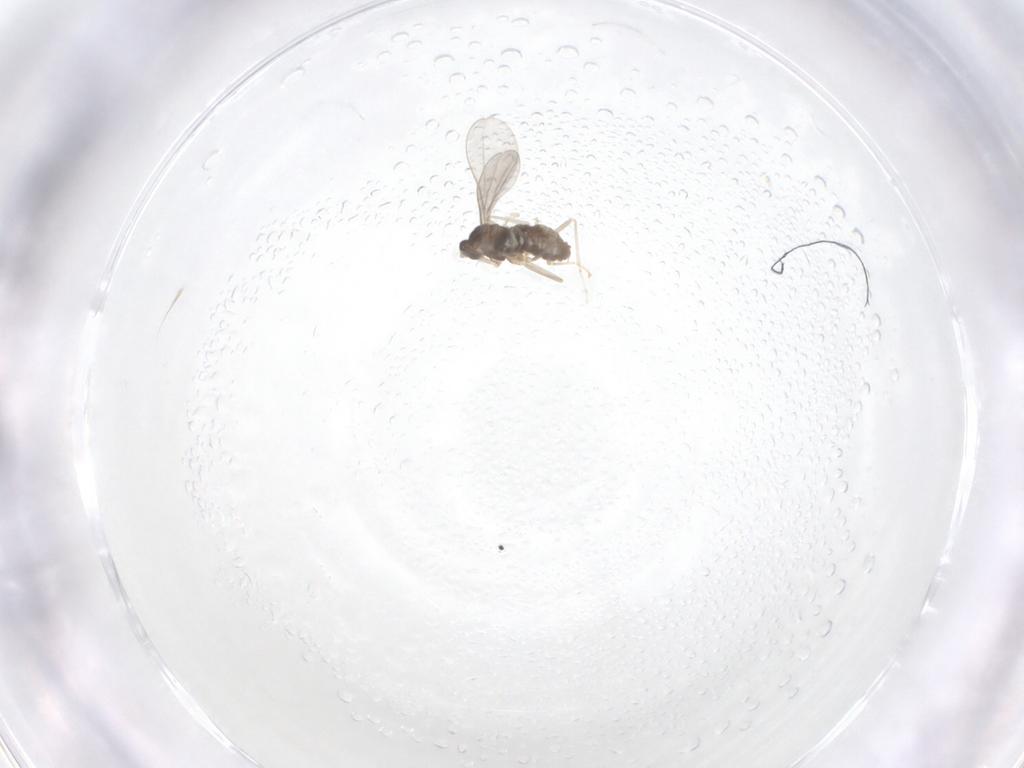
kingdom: Animalia
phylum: Arthropoda
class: Insecta
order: Diptera
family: Cecidomyiidae
